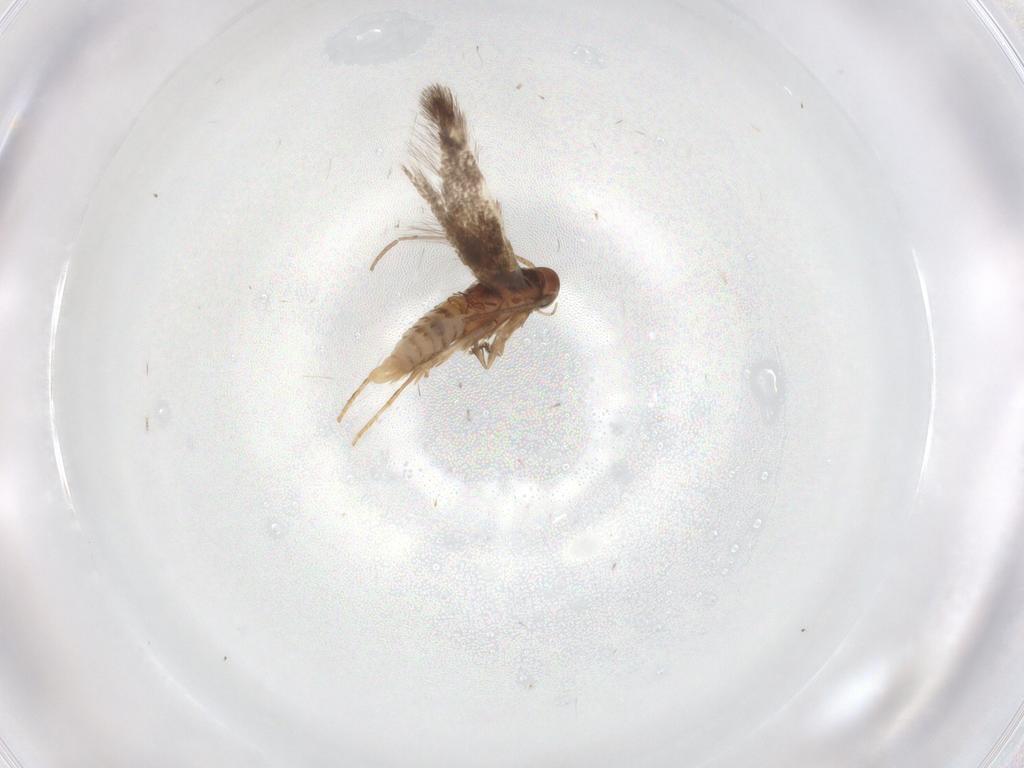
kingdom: Animalia
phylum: Arthropoda
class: Insecta
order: Lepidoptera
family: Elachistidae
